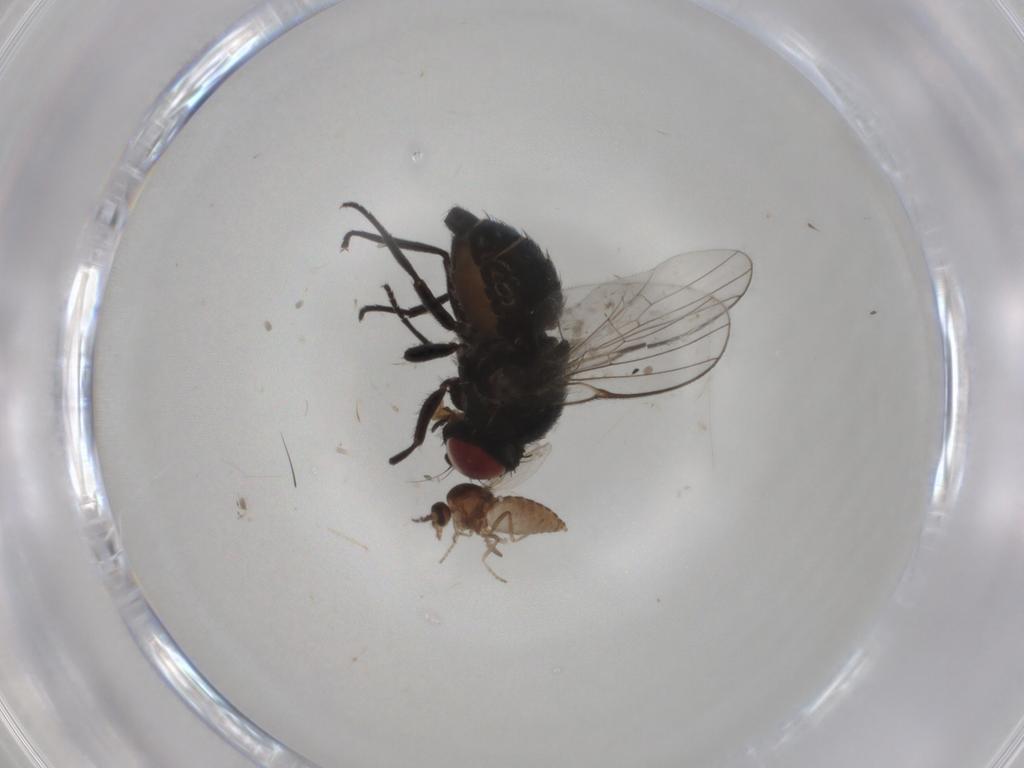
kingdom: Animalia
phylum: Arthropoda
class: Insecta
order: Diptera
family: Agromyzidae
